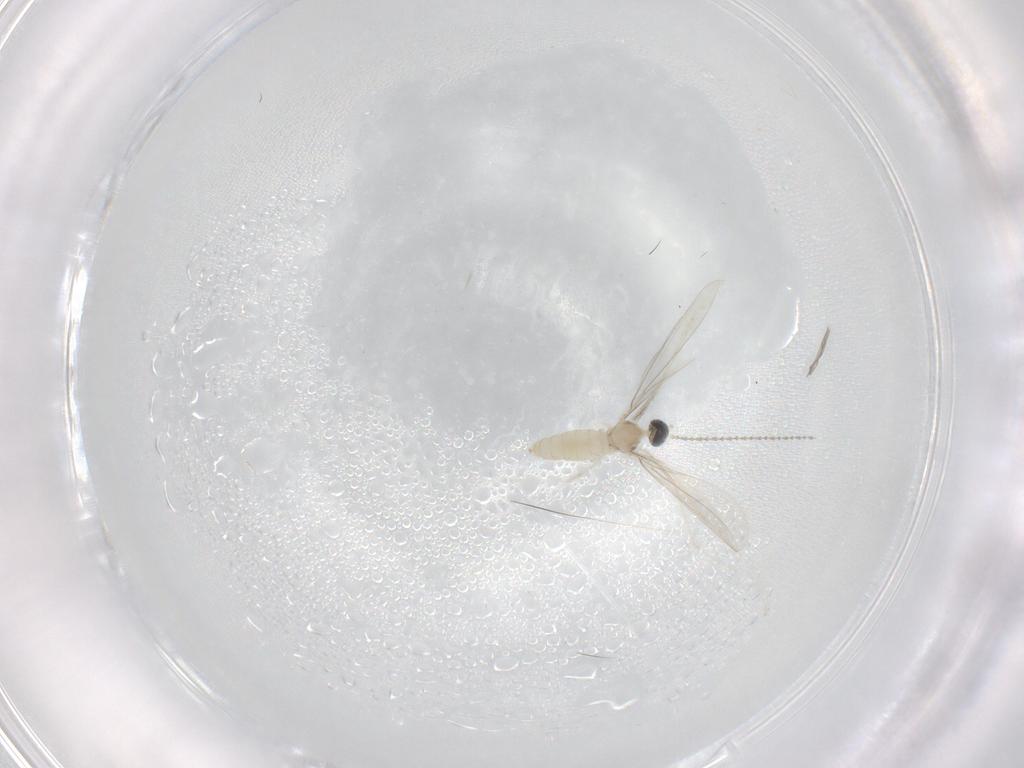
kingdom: Animalia
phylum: Arthropoda
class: Insecta
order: Diptera
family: Cecidomyiidae
